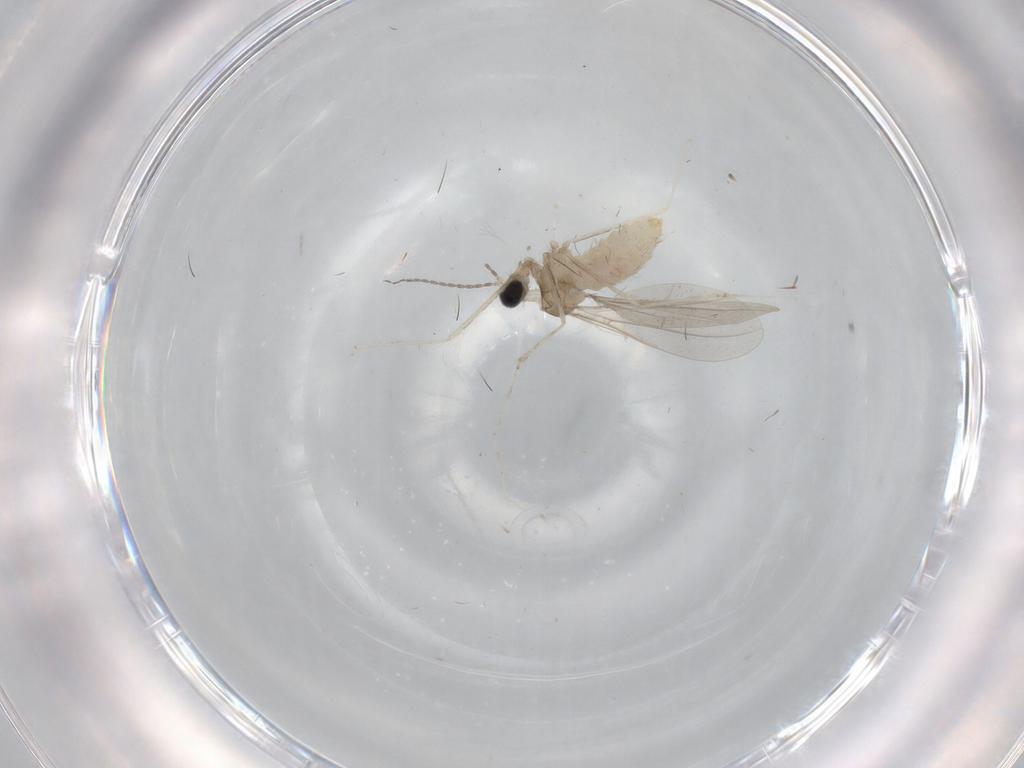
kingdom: Animalia
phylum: Arthropoda
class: Insecta
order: Diptera
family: Cecidomyiidae
